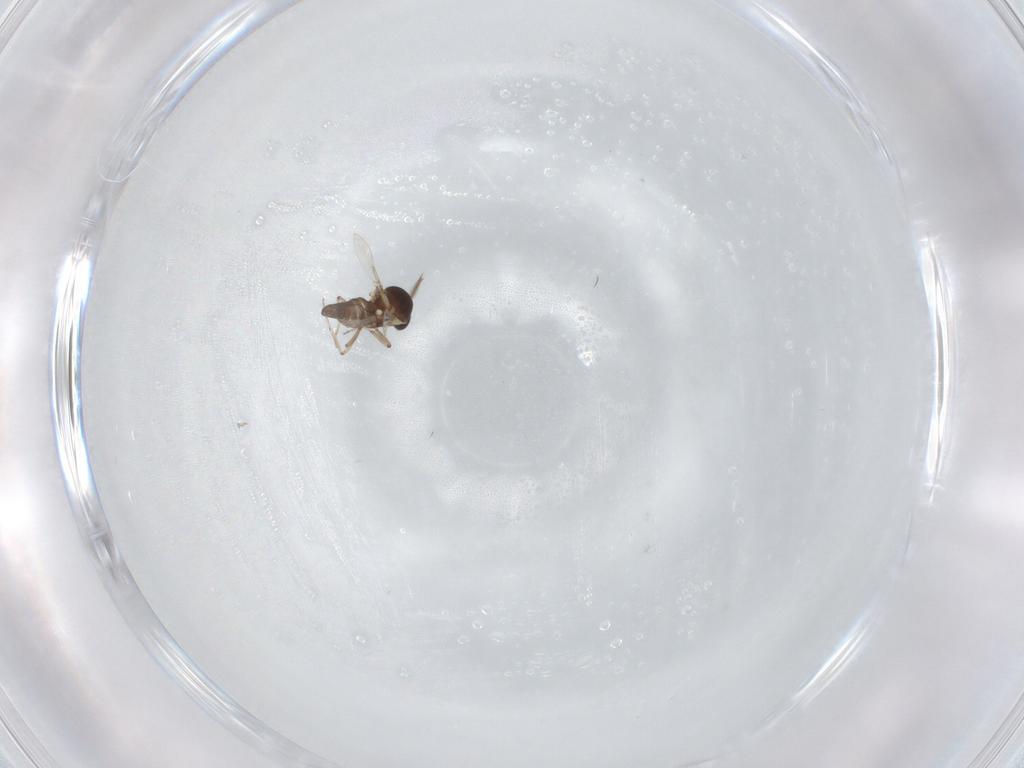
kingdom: Animalia
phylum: Arthropoda
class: Insecta
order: Diptera
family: Ceratopogonidae
